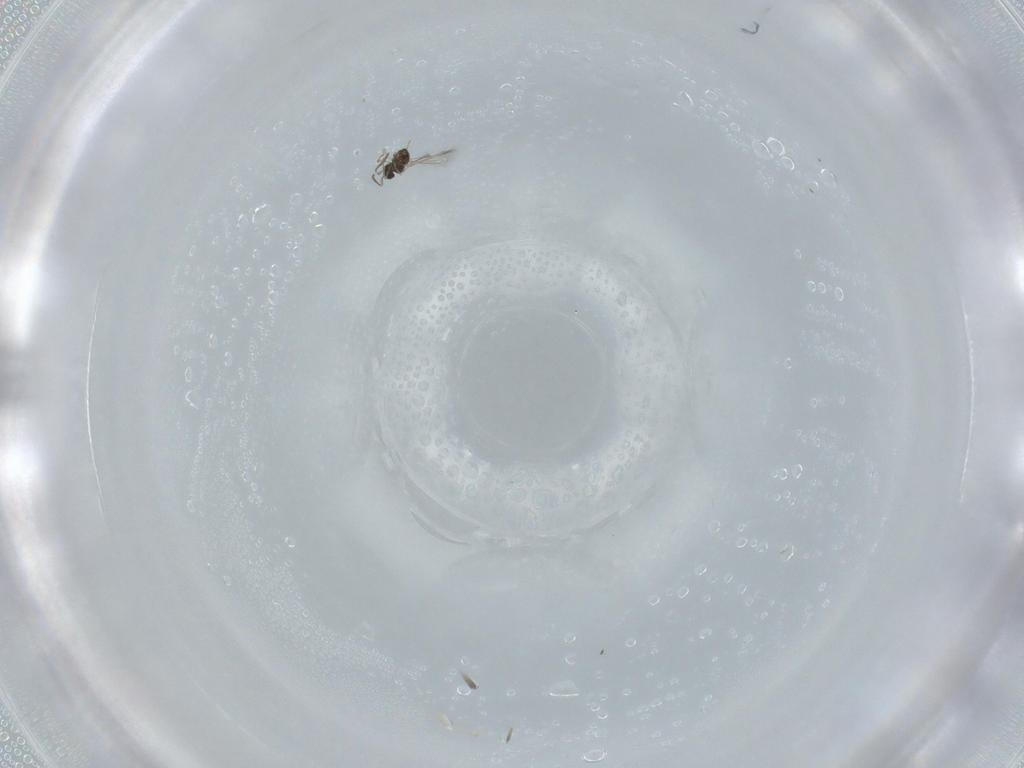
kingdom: Animalia
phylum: Arthropoda
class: Insecta
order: Hymenoptera
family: Scelionidae
